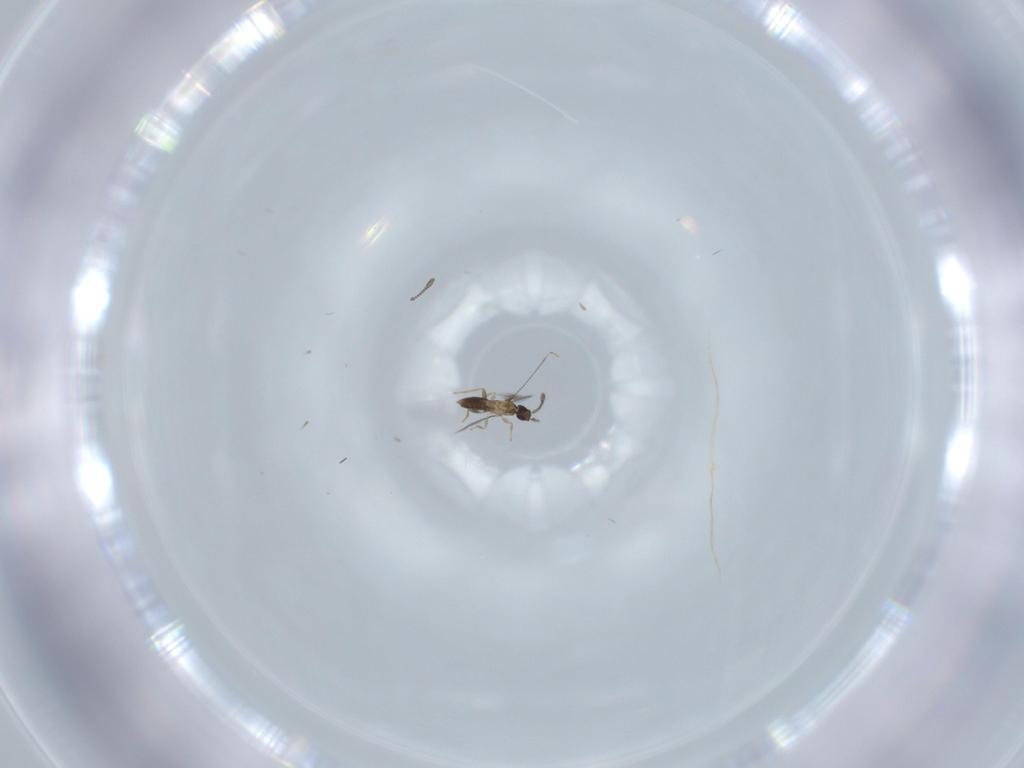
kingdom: Animalia
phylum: Arthropoda
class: Insecta
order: Hymenoptera
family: Mymaridae
